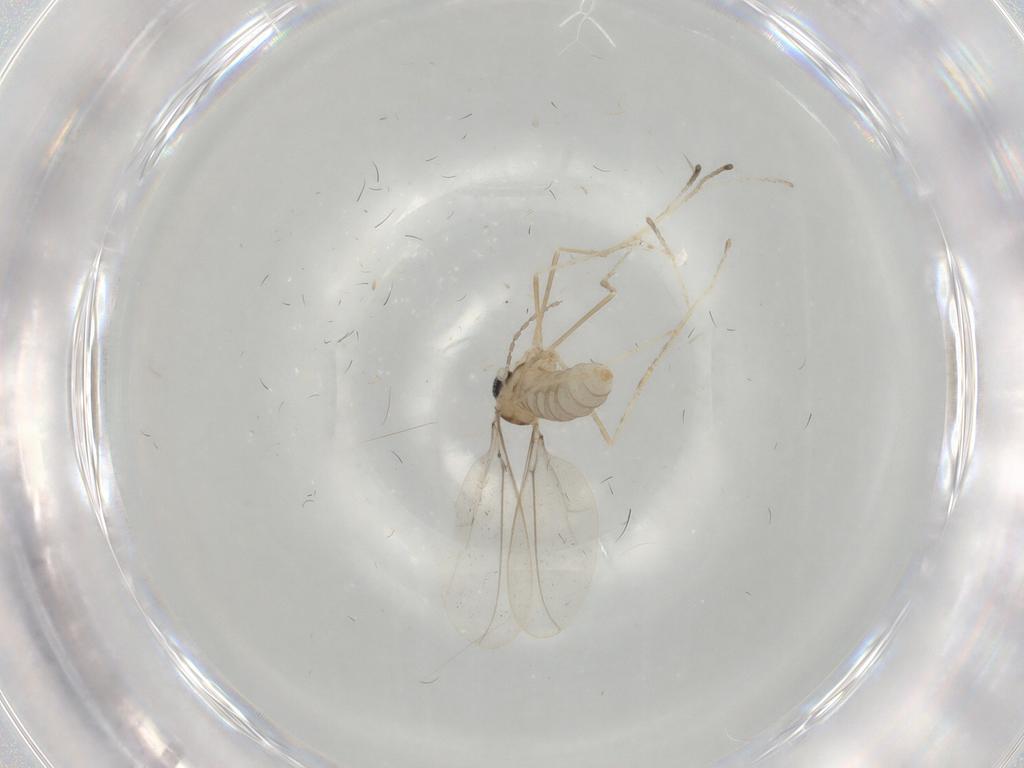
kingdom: Animalia
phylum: Arthropoda
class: Insecta
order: Diptera
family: Cecidomyiidae
